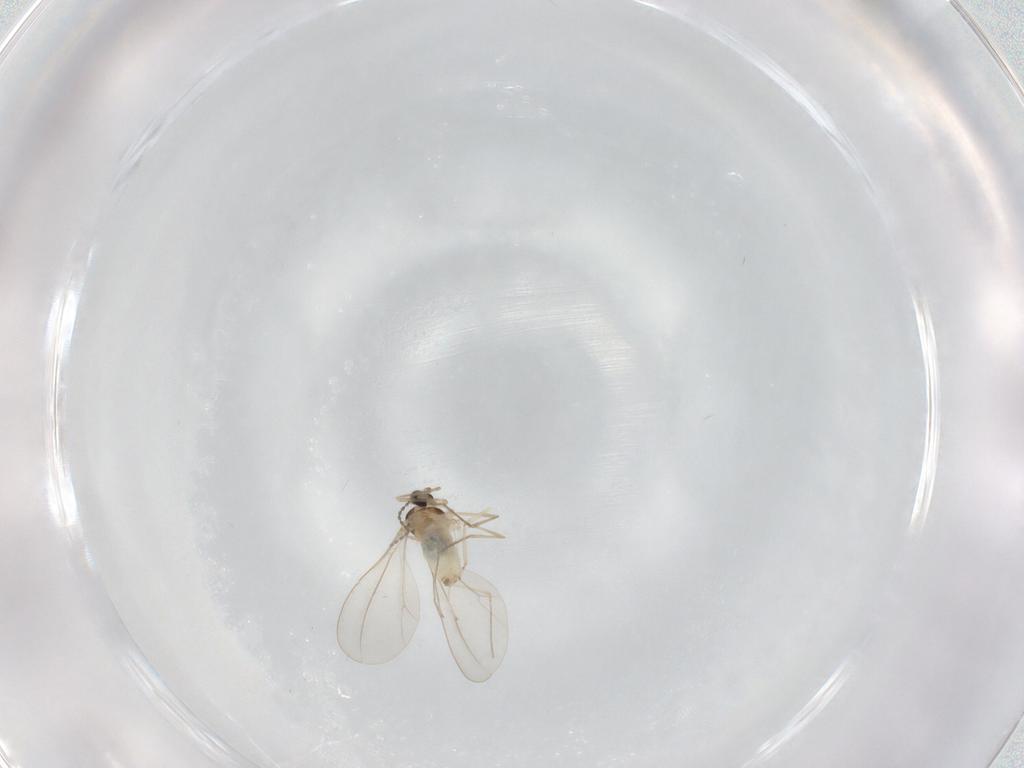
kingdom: Animalia
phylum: Arthropoda
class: Insecta
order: Diptera
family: Cecidomyiidae
